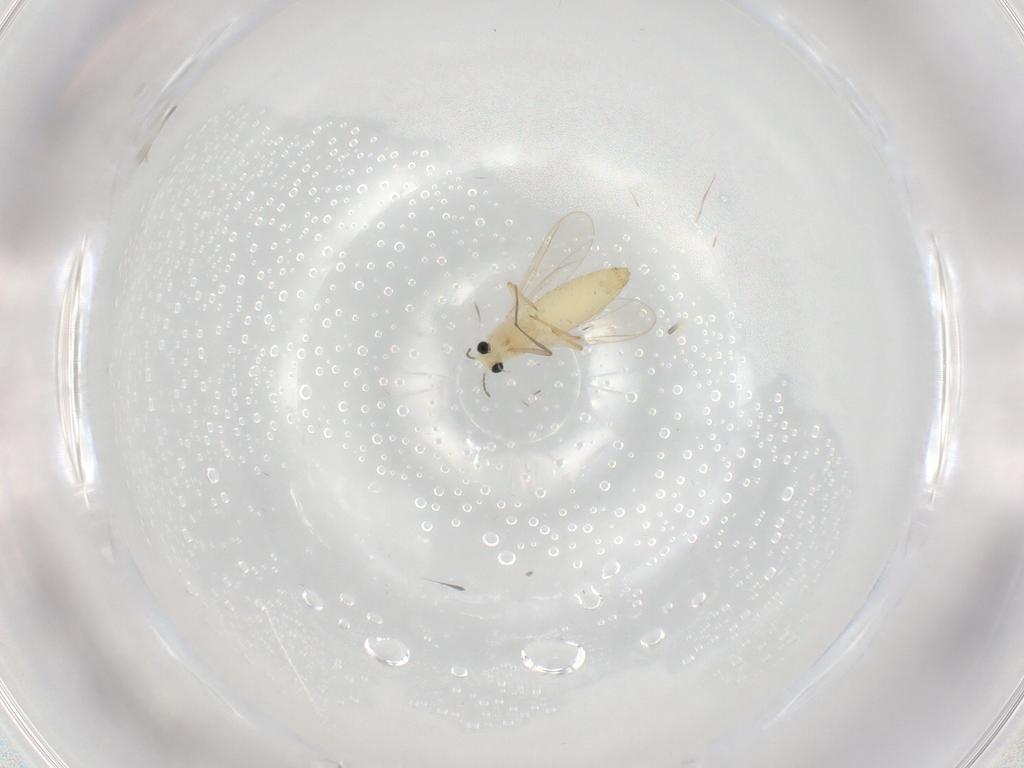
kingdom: Animalia
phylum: Arthropoda
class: Insecta
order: Diptera
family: Chironomidae
